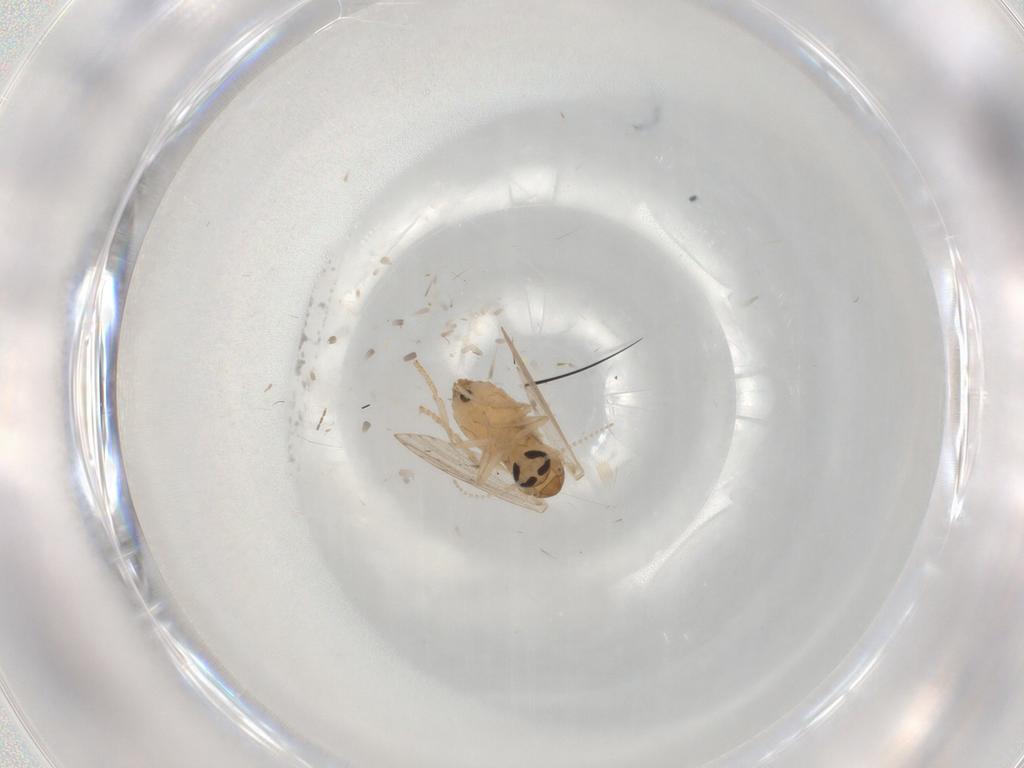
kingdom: Animalia
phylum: Arthropoda
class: Insecta
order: Diptera
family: Psychodidae
